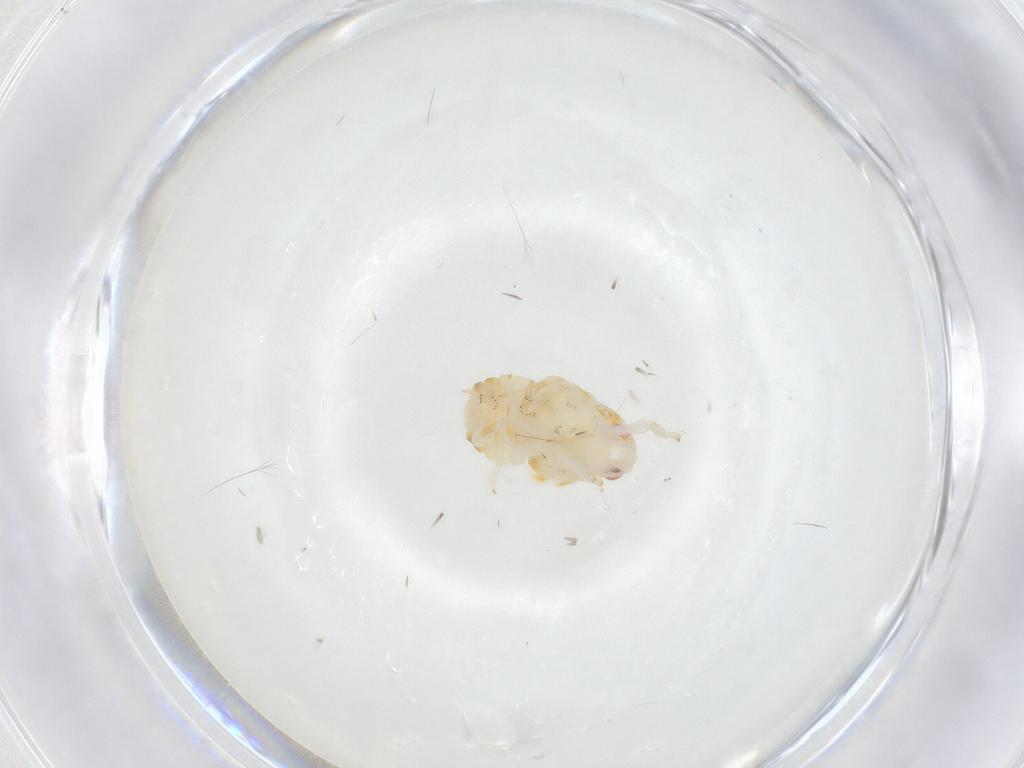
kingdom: Animalia
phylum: Arthropoda
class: Insecta
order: Hemiptera
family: Fulgoroidea_incertae_sedis
